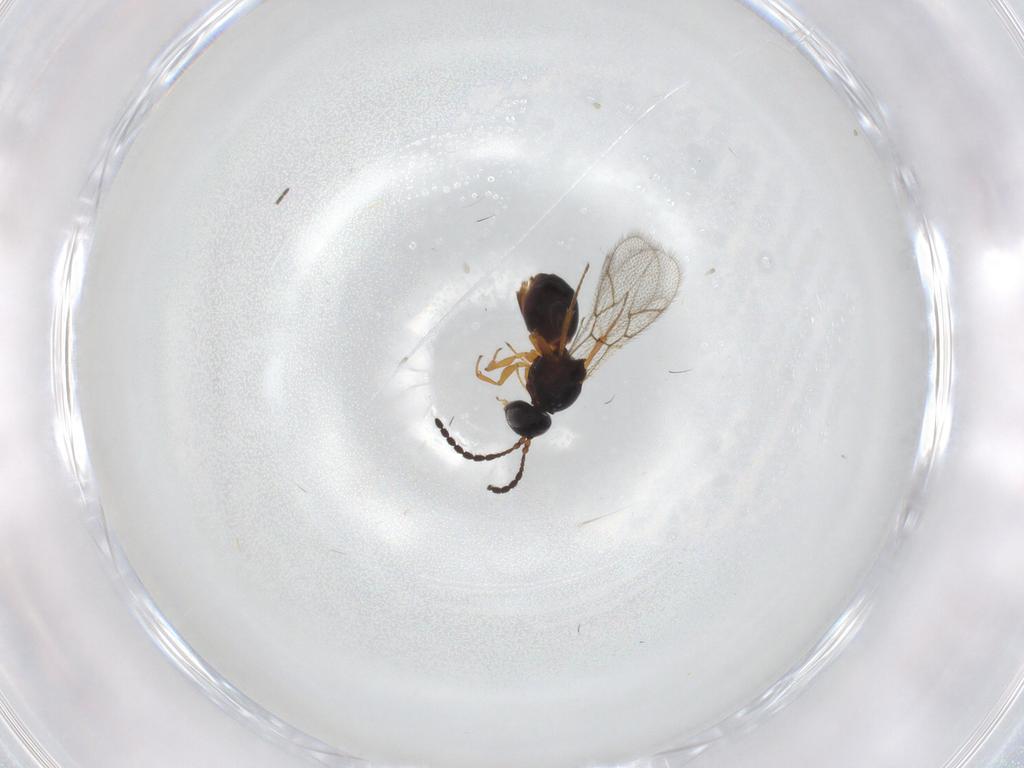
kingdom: Animalia
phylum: Arthropoda
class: Insecta
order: Hymenoptera
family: Figitidae
